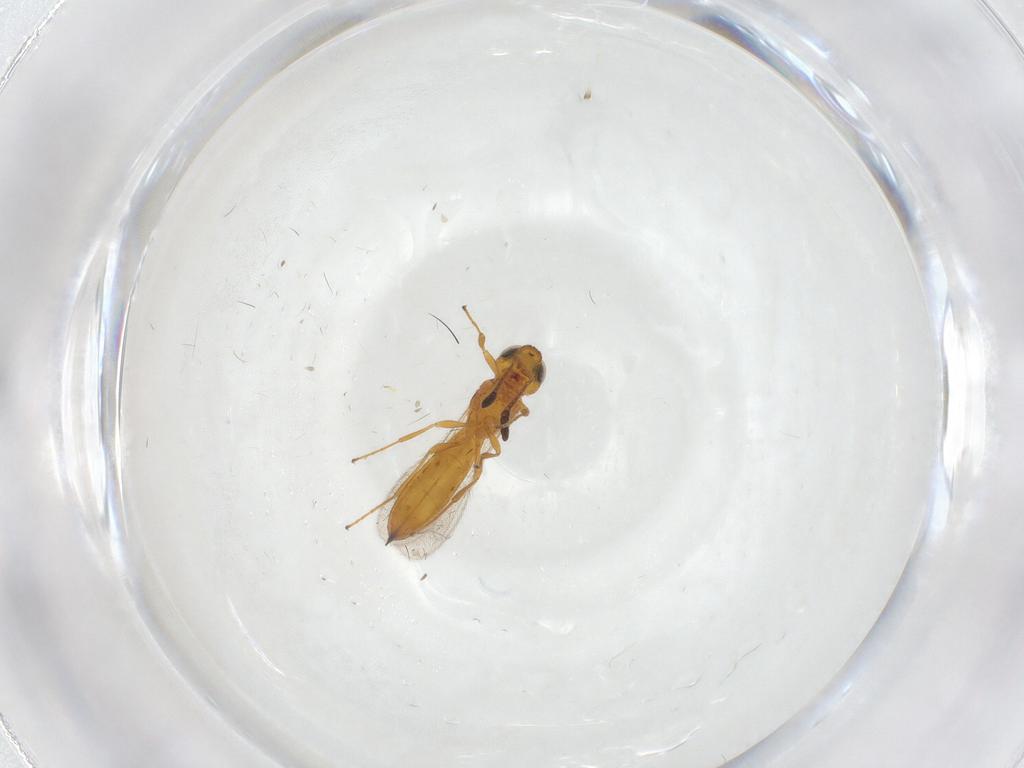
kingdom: Animalia
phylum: Arthropoda
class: Insecta
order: Hymenoptera
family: Scelionidae
